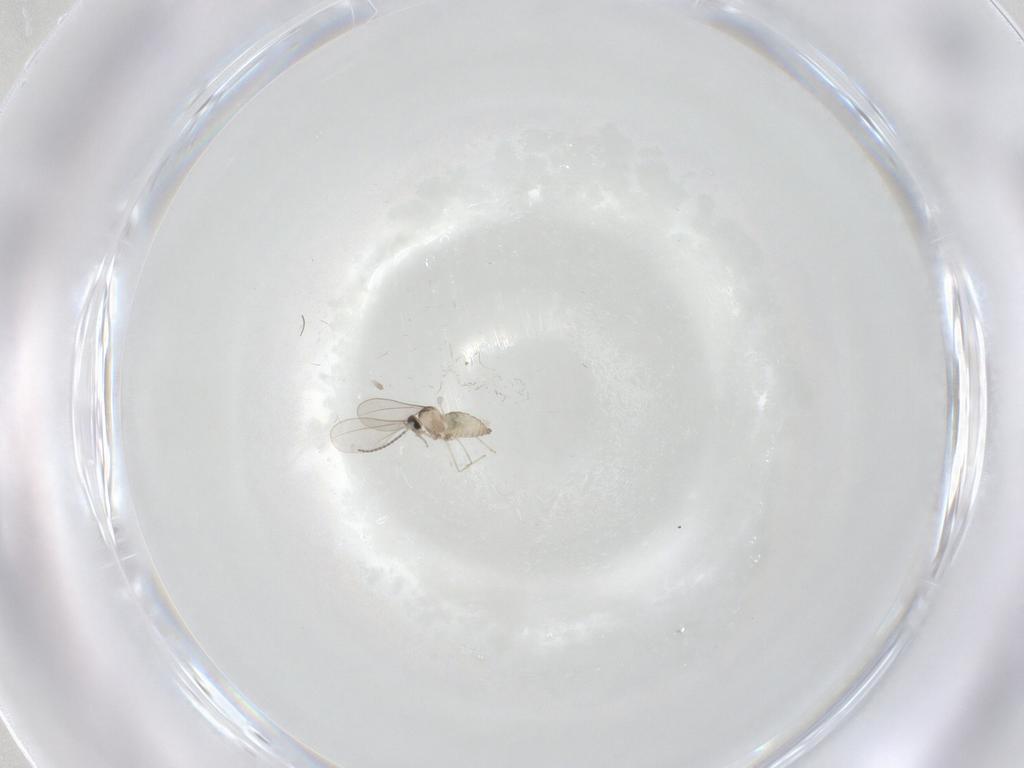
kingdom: Animalia
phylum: Arthropoda
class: Insecta
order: Diptera
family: Cecidomyiidae
